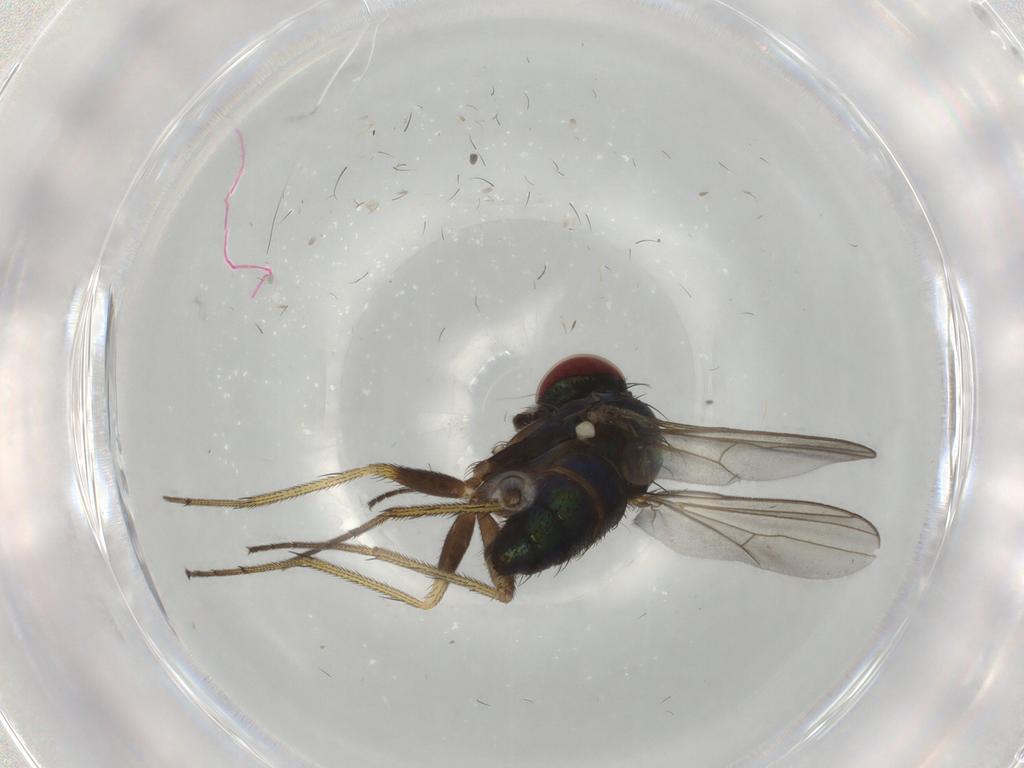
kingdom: Animalia
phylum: Arthropoda
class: Insecta
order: Diptera
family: Dolichopodidae
